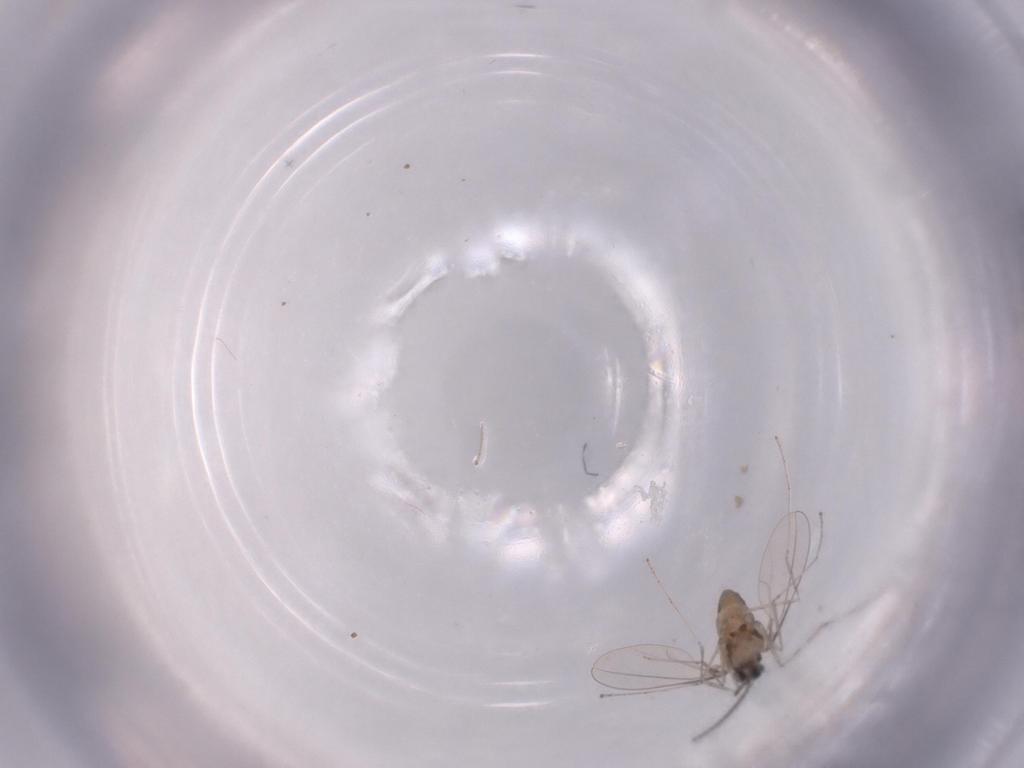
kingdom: Animalia
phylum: Arthropoda
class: Insecta
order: Diptera
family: Cecidomyiidae
